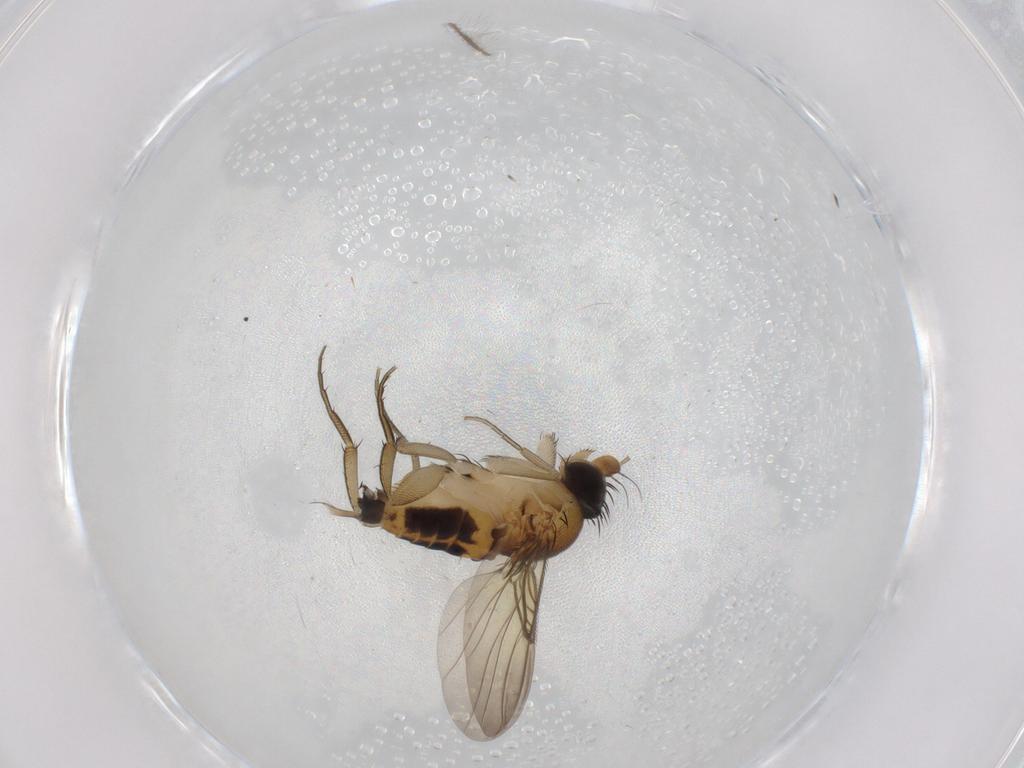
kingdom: Animalia
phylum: Arthropoda
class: Insecta
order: Diptera
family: Phoridae
